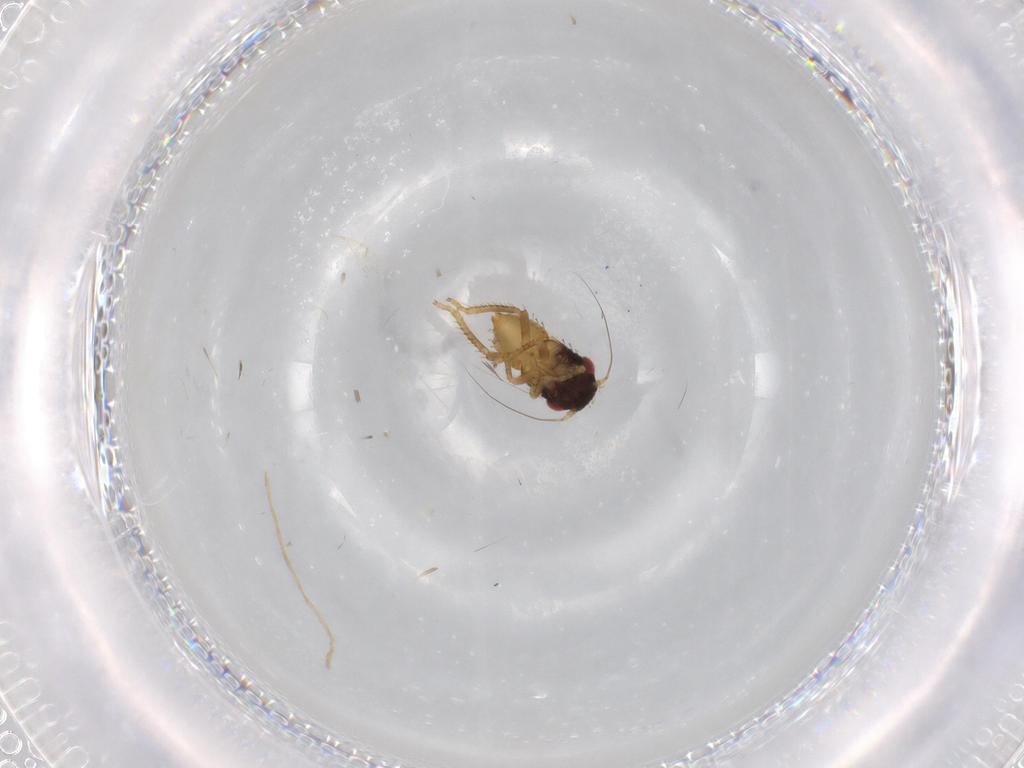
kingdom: Animalia
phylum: Arthropoda
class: Insecta
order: Hemiptera
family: Cicadellidae
